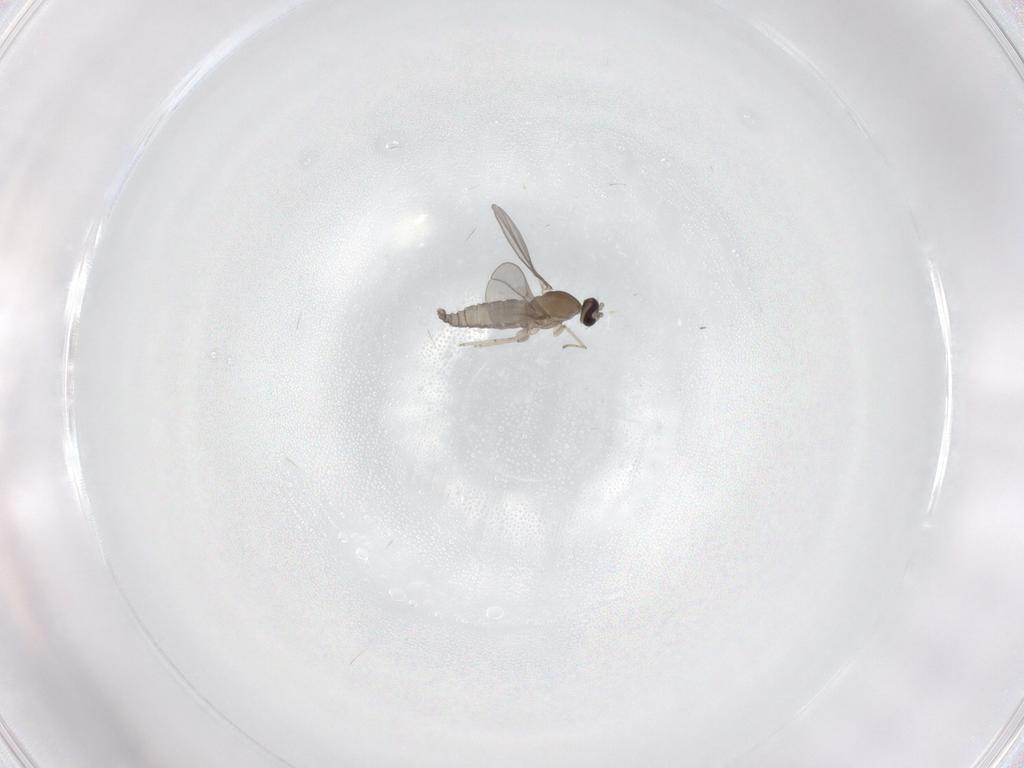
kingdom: Animalia
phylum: Arthropoda
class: Insecta
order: Diptera
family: Cecidomyiidae
